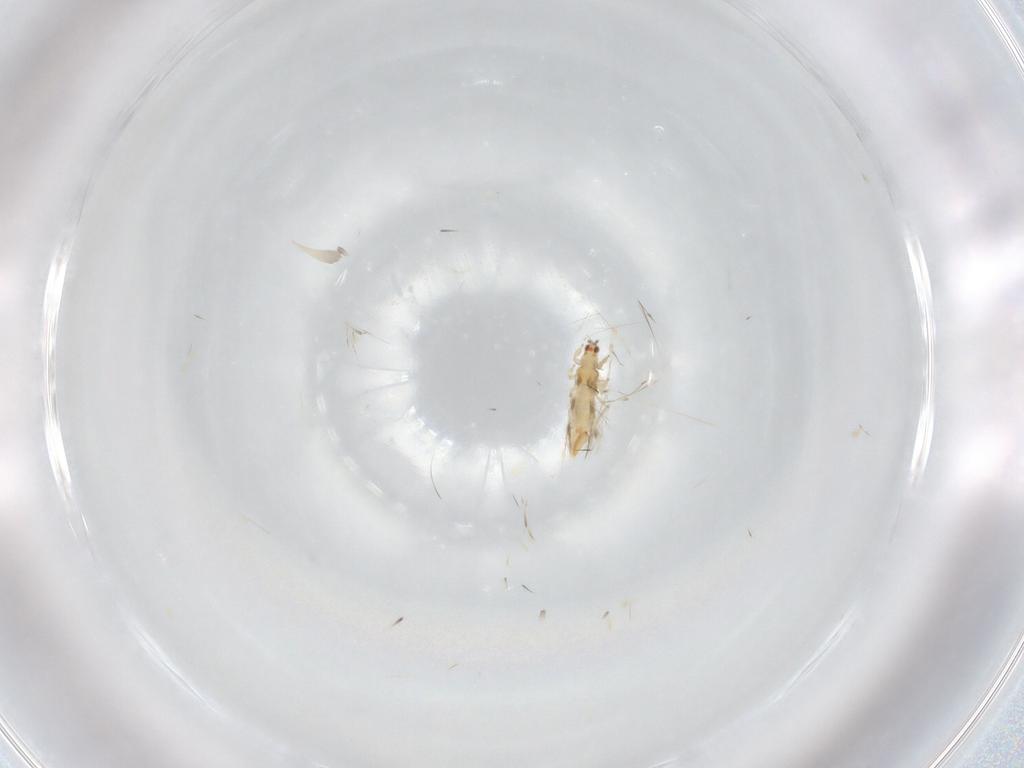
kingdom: Animalia
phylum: Arthropoda
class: Insecta
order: Thysanoptera
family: Thripidae
